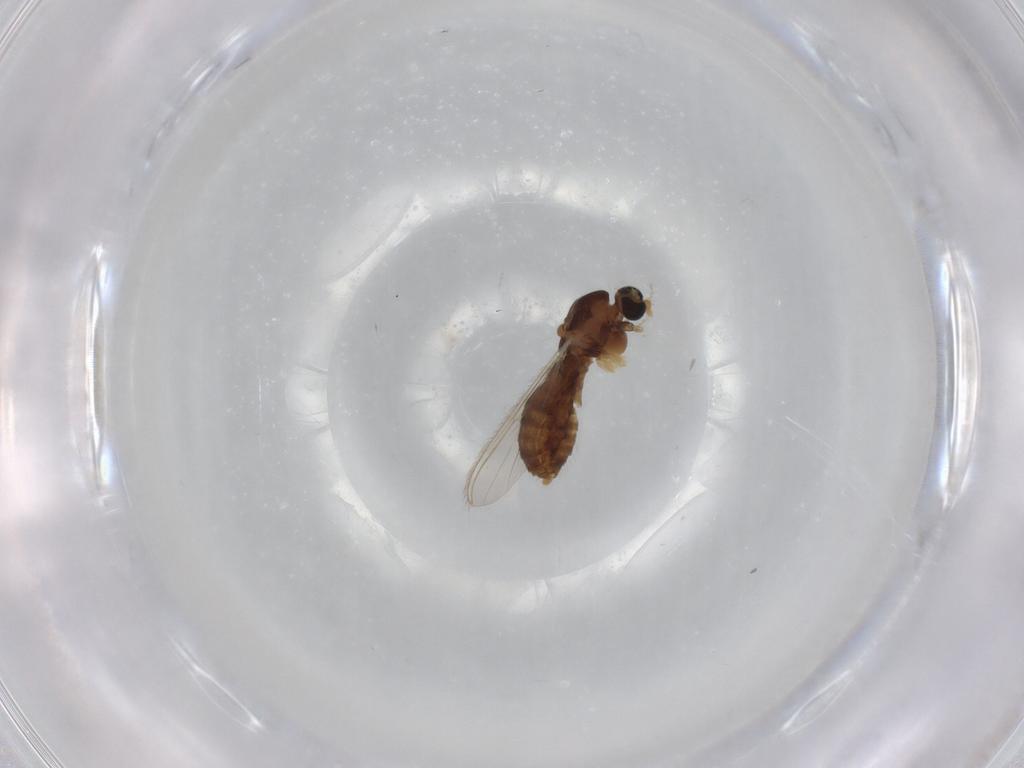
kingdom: Animalia
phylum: Arthropoda
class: Insecta
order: Diptera
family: Chironomidae
